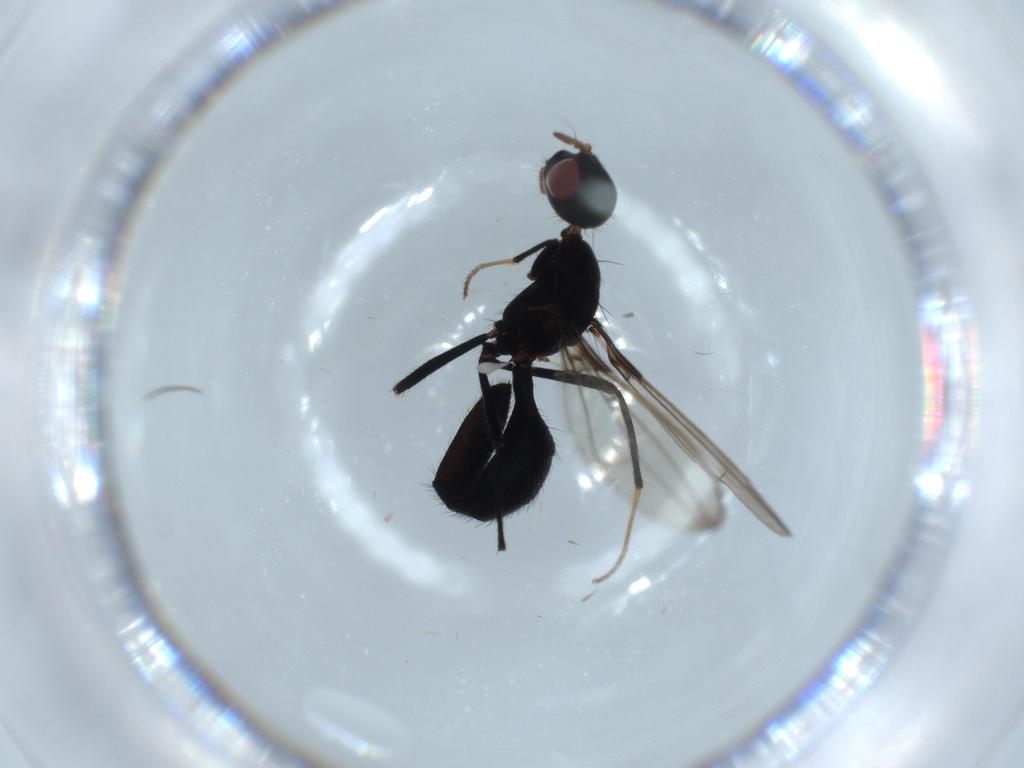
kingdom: Animalia
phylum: Arthropoda
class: Insecta
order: Diptera
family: Richardiidae
